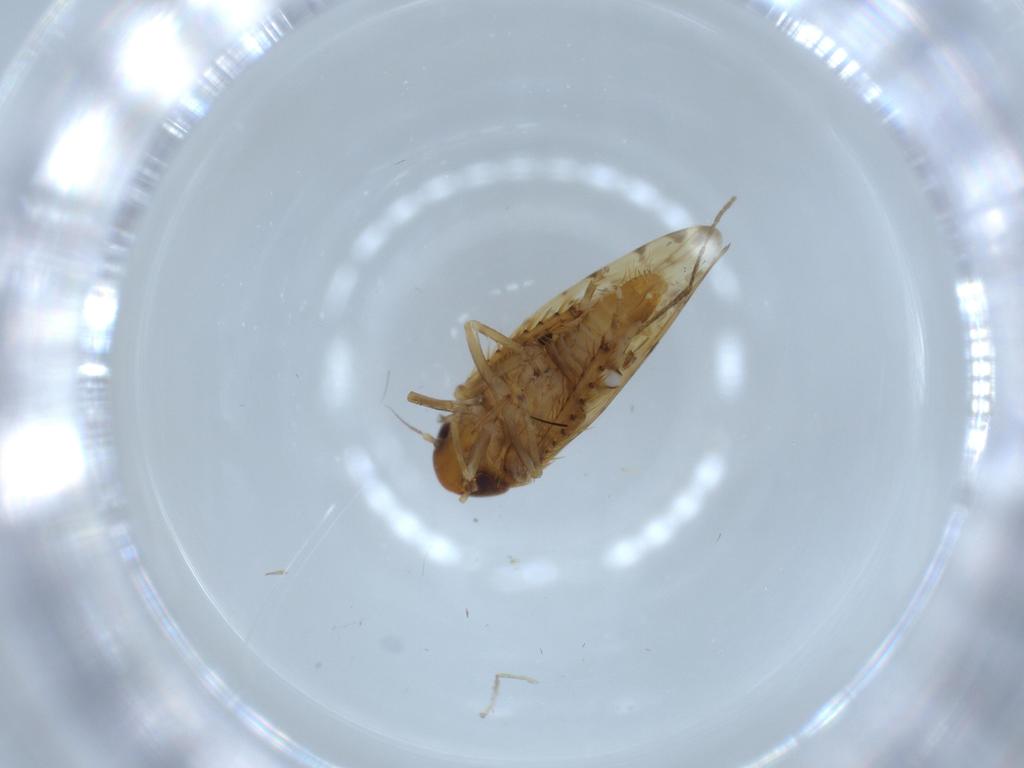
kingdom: Animalia
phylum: Arthropoda
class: Insecta
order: Hemiptera
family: Cicadellidae
